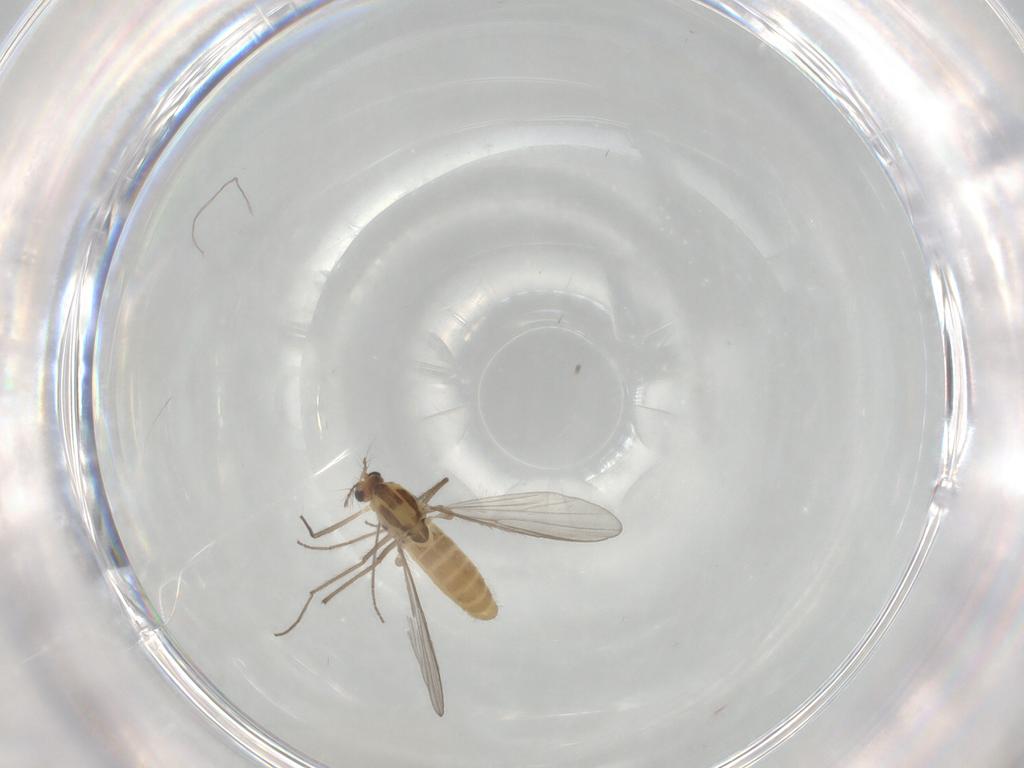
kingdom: Animalia
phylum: Arthropoda
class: Insecta
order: Diptera
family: Chironomidae
